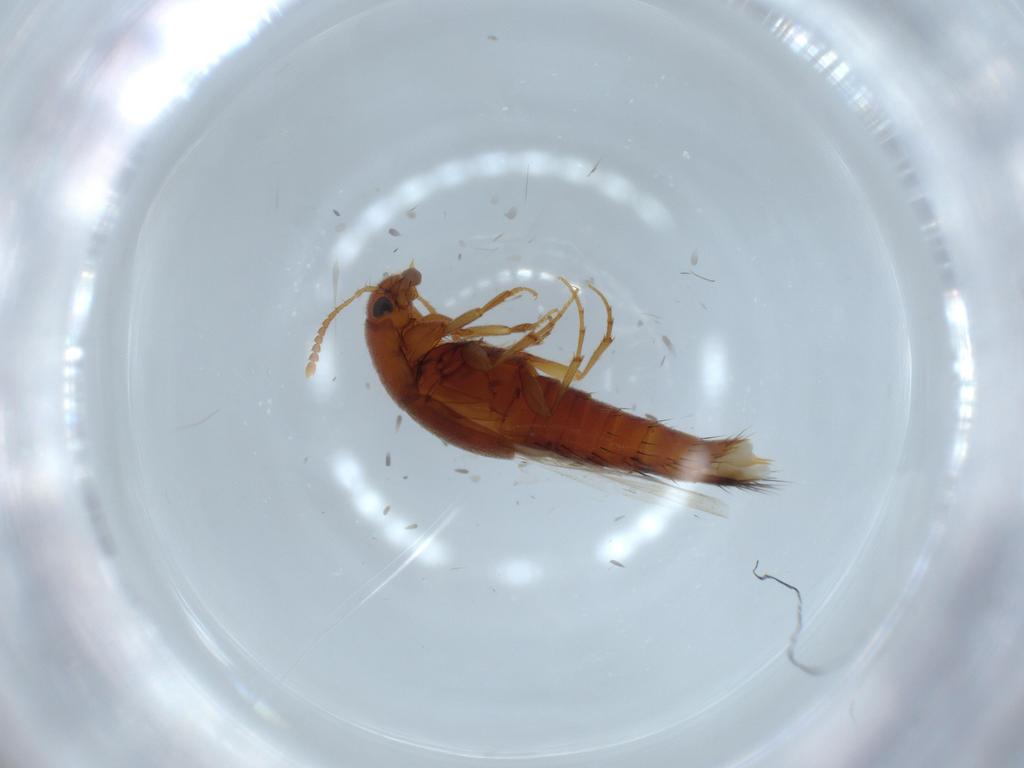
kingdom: Animalia
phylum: Arthropoda
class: Insecta
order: Coleoptera
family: Staphylinidae
